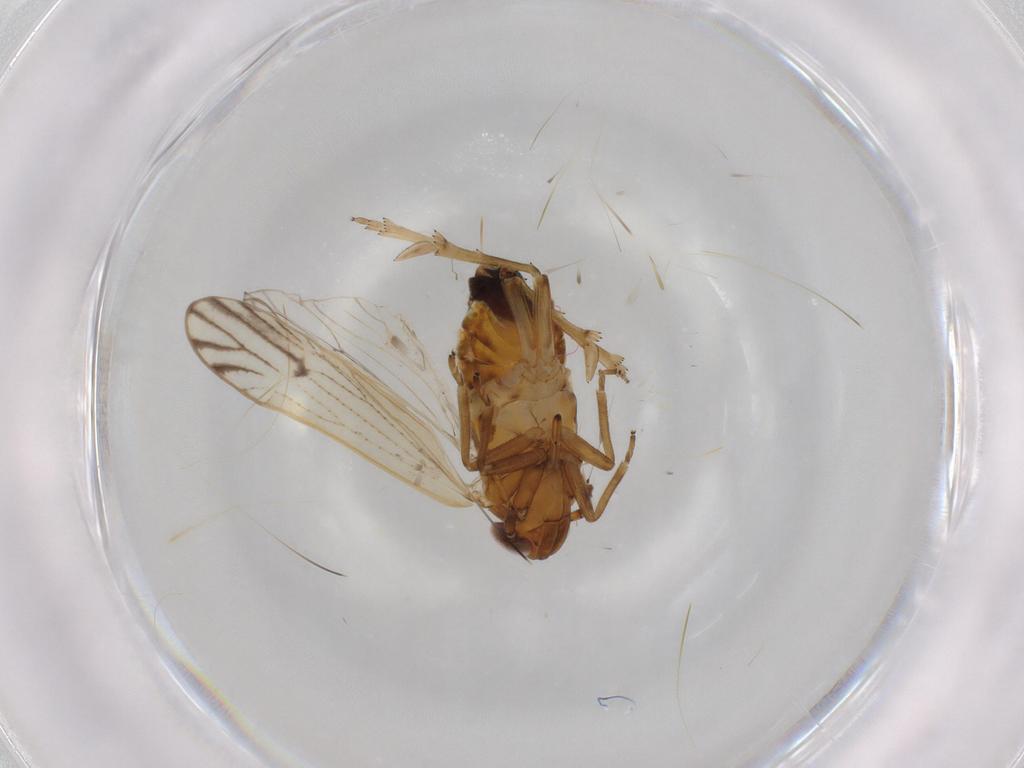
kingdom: Animalia
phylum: Arthropoda
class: Insecta
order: Hemiptera
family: Delphacidae
